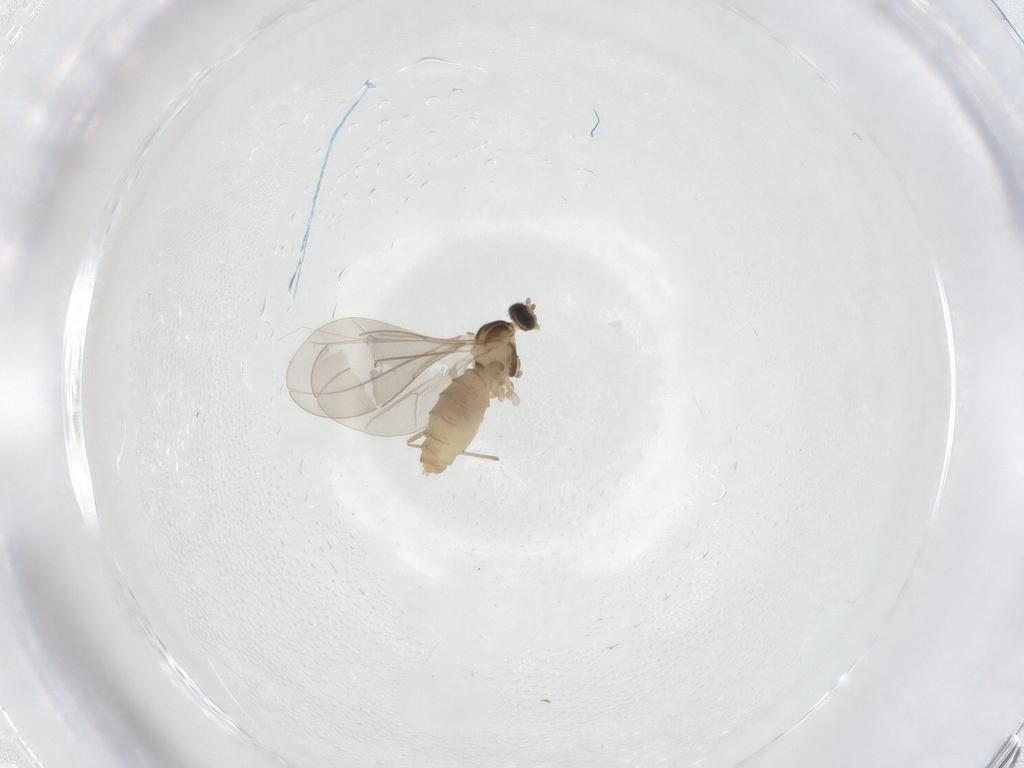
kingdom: Animalia
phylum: Arthropoda
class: Insecta
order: Diptera
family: Cecidomyiidae
